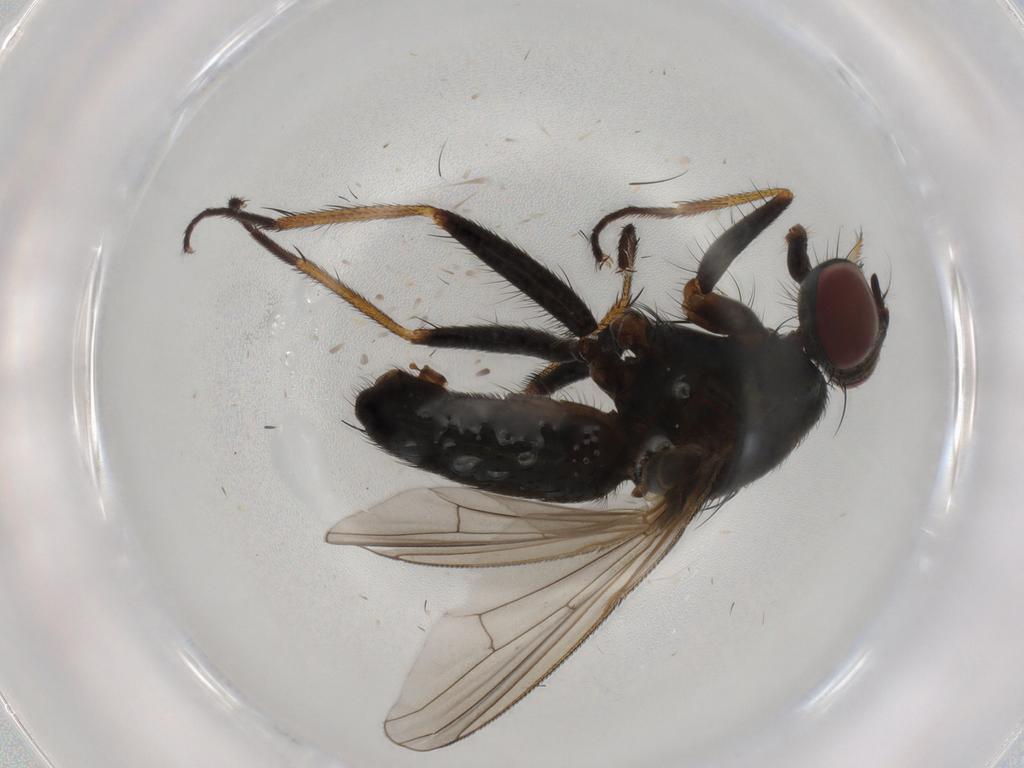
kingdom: Animalia
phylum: Arthropoda
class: Insecta
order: Diptera
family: Muscidae
